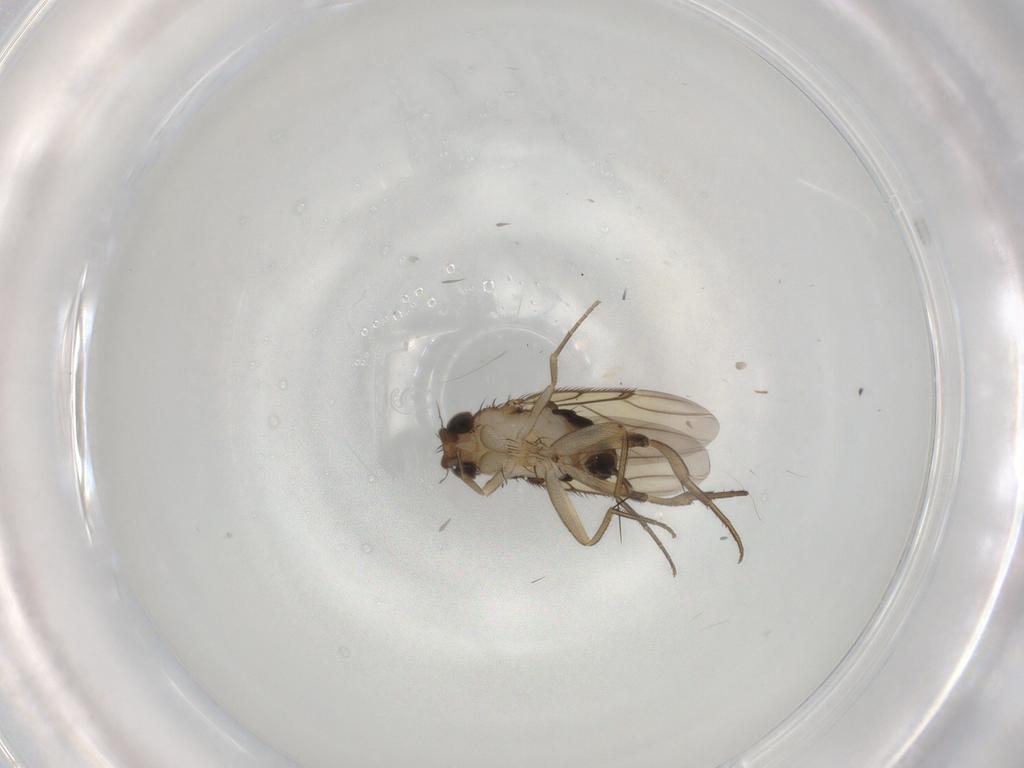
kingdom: Animalia
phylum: Arthropoda
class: Insecta
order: Diptera
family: Phoridae
